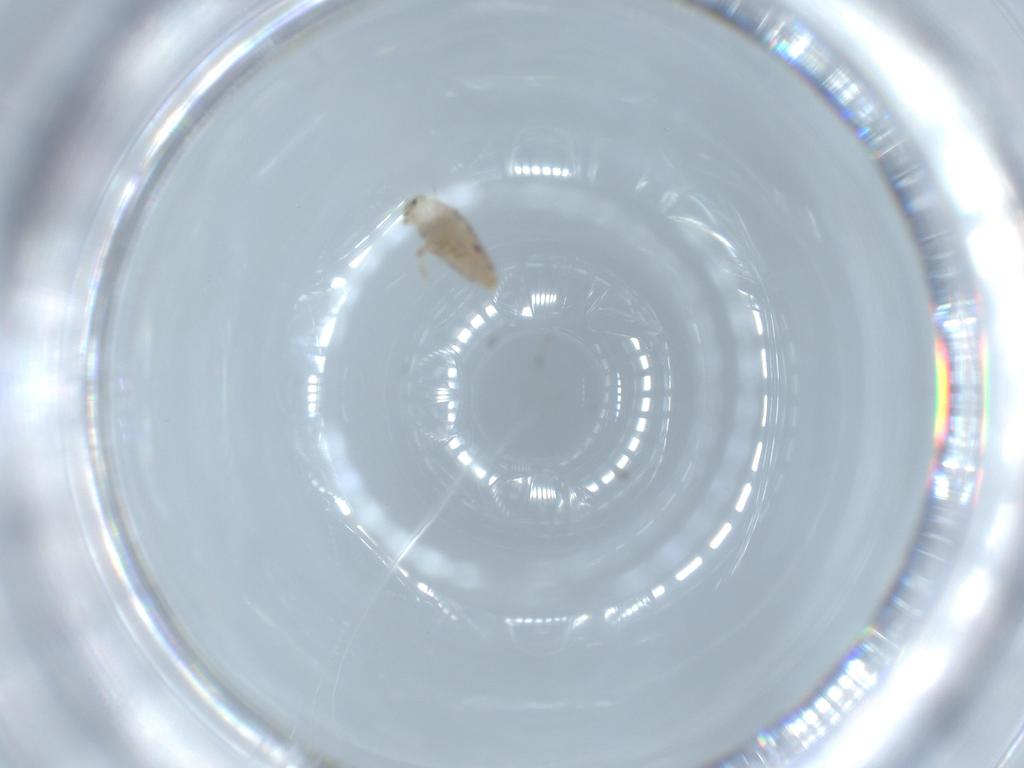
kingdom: Animalia
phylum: Arthropoda
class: Collembola
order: Entomobryomorpha
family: Entomobryidae
